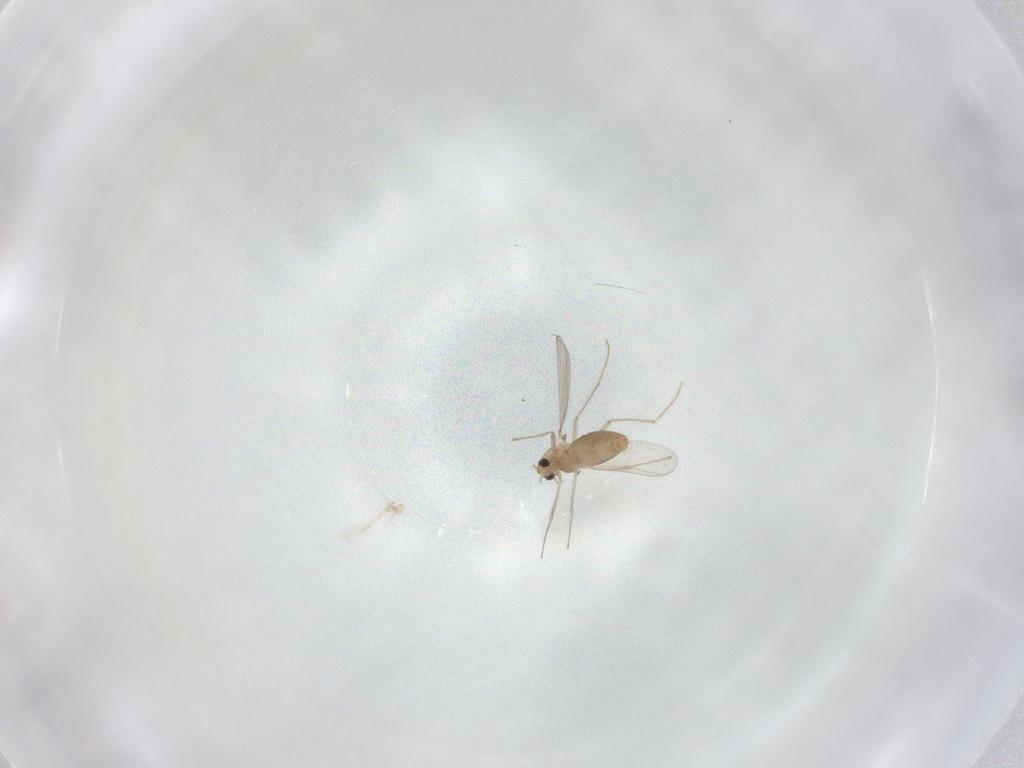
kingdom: Animalia
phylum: Arthropoda
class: Insecta
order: Diptera
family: Chironomidae
